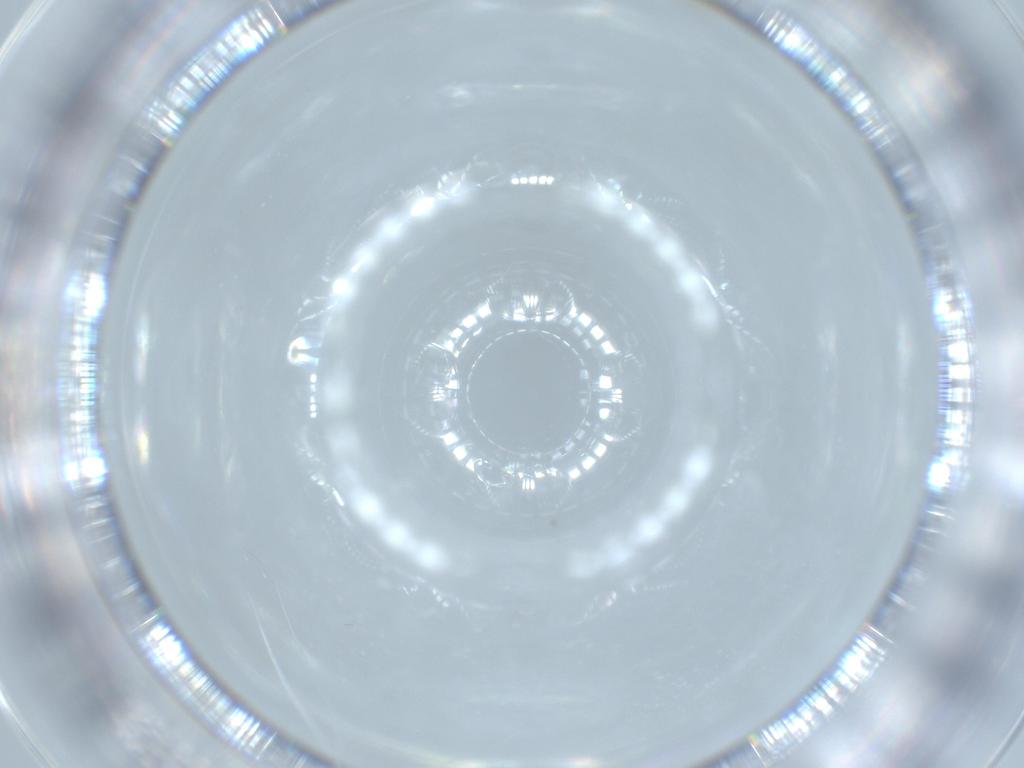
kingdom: Animalia
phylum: Arthropoda
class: Insecta
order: Diptera
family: Cecidomyiidae
